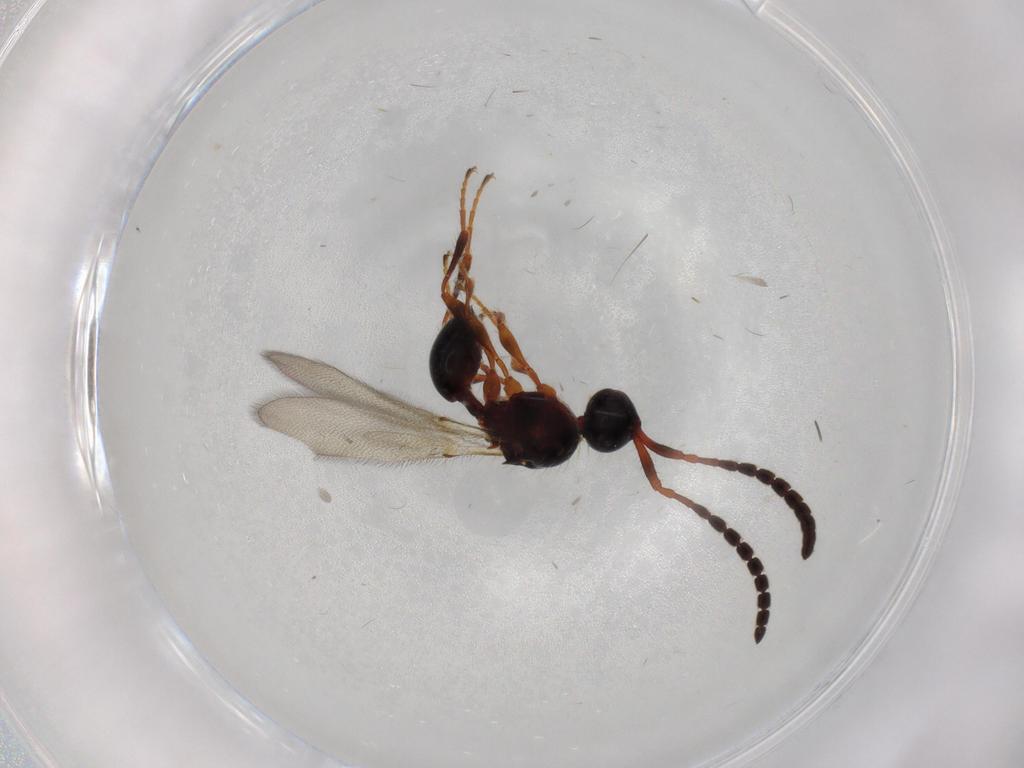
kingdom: Animalia
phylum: Arthropoda
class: Insecta
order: Hymenoptera
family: Diapriidae
